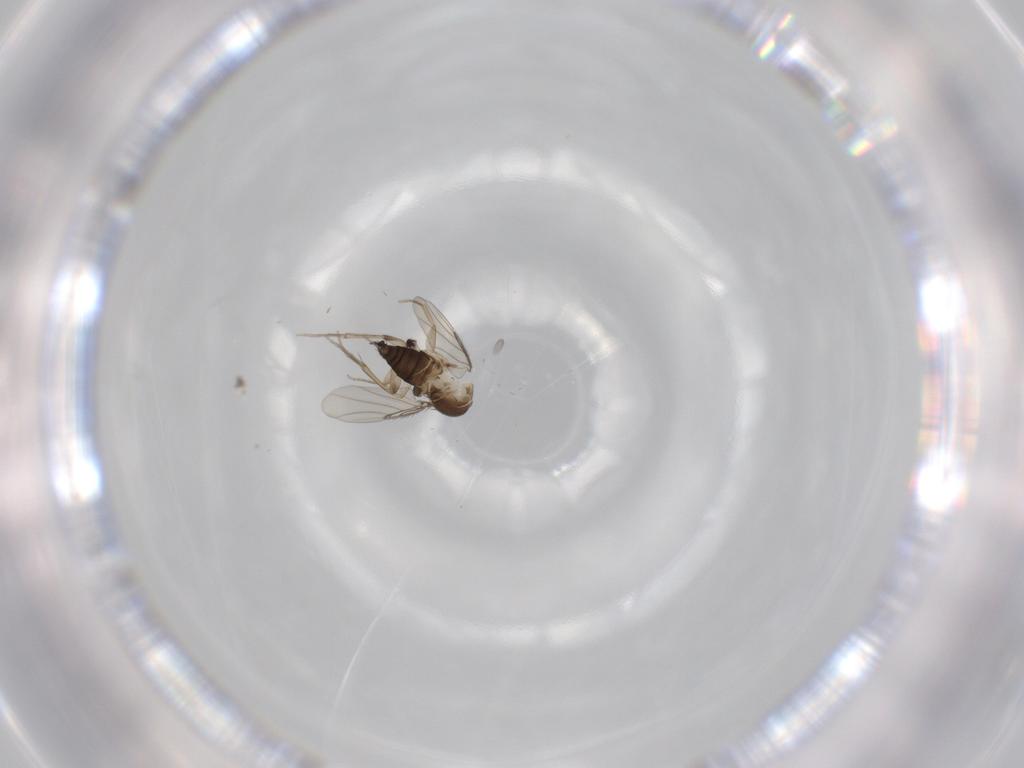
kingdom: Animalia
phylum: Arthropoda
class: Insecta
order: Diptera
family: Phoridae
